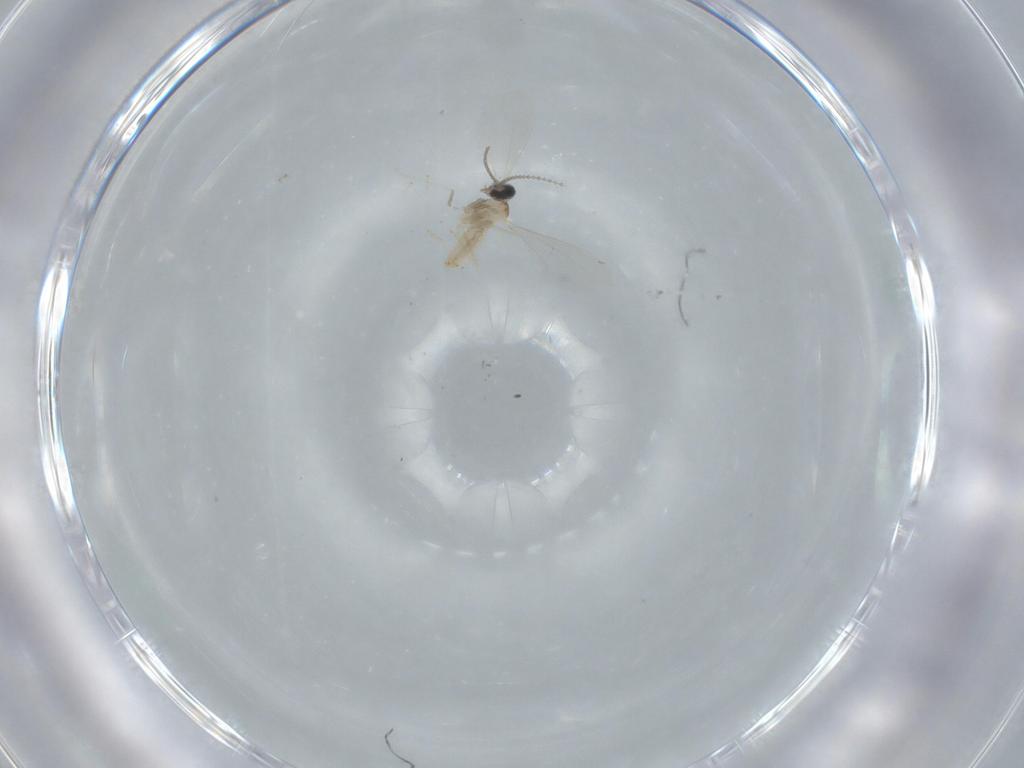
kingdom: Animalia
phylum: Arthropoda
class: Insecta
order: Diptera
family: Cecidomyiidae
